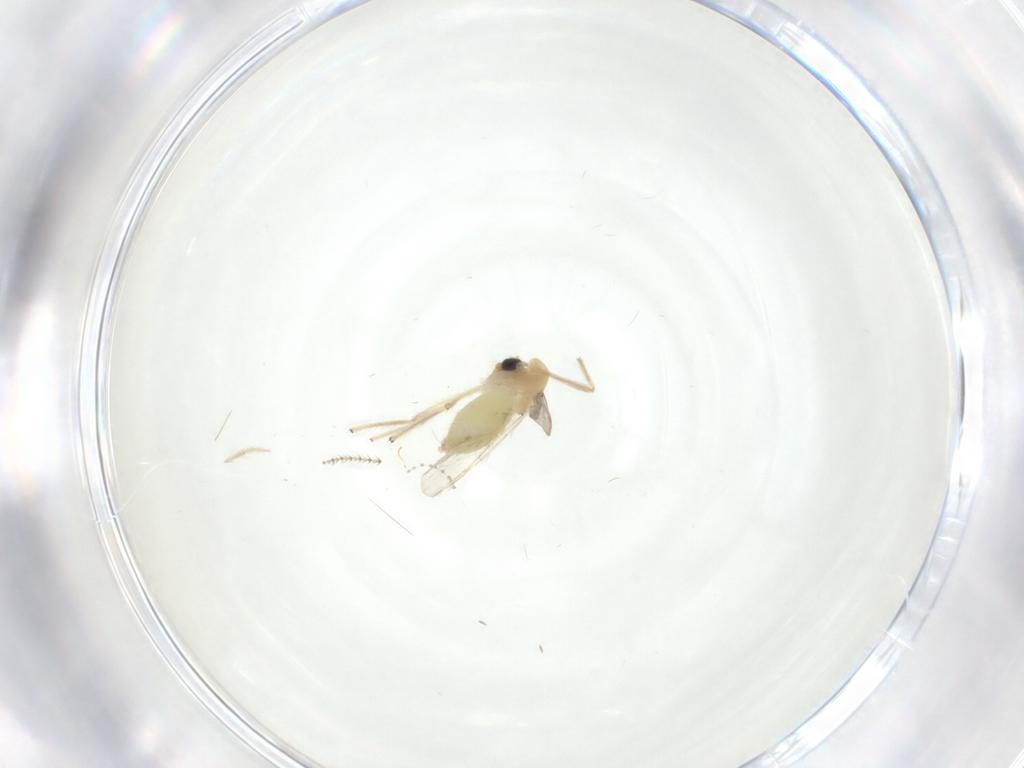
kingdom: Animalia
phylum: Arthropoda
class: Insecta
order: Diptera
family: Chironomidae
